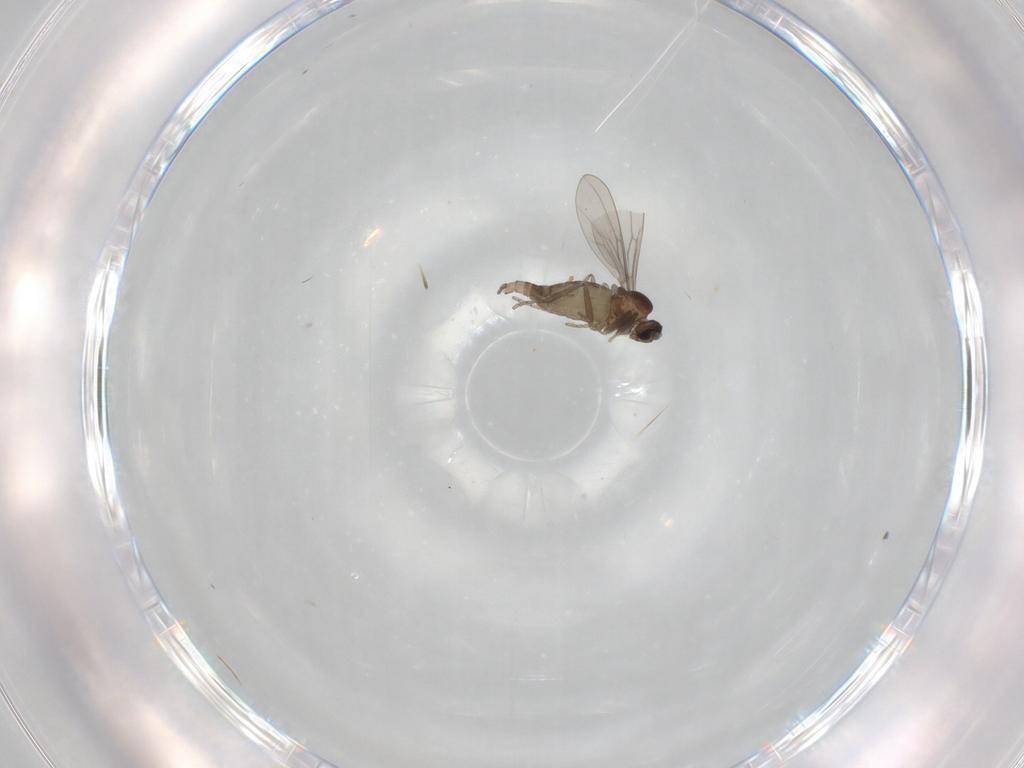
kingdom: Animalia
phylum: Arthropoda
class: Insecta
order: Diptera
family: Cecidomyiidae
